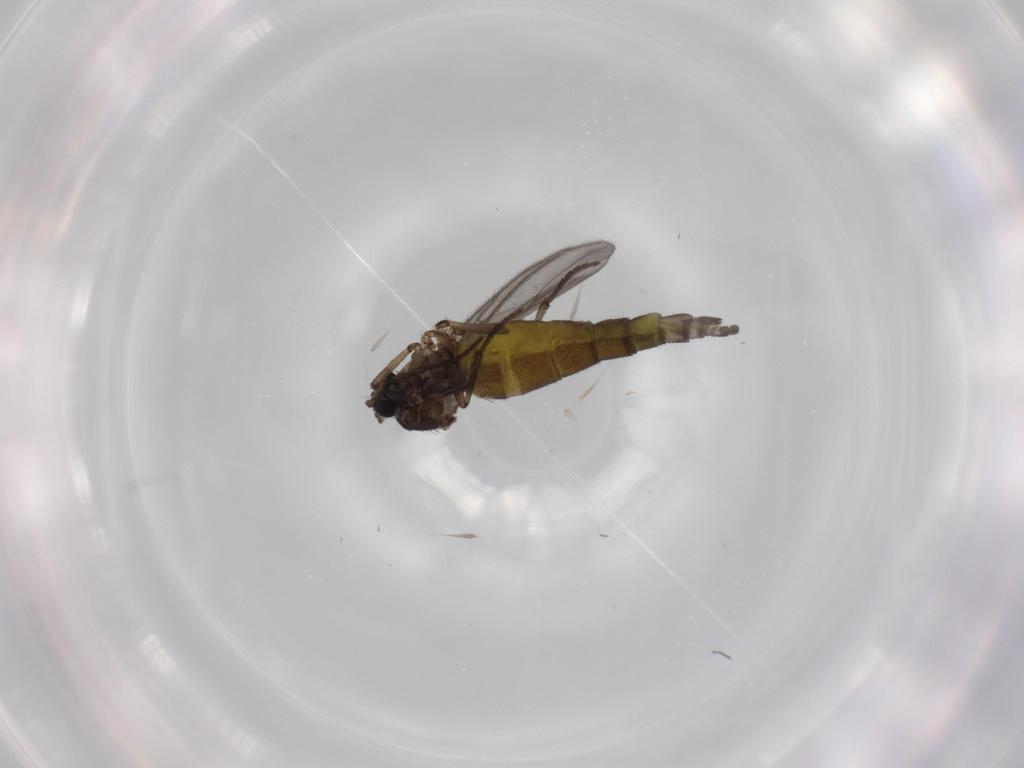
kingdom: Animalia
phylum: Arthropoda
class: Insecta
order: Diptera
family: Sciaridae
